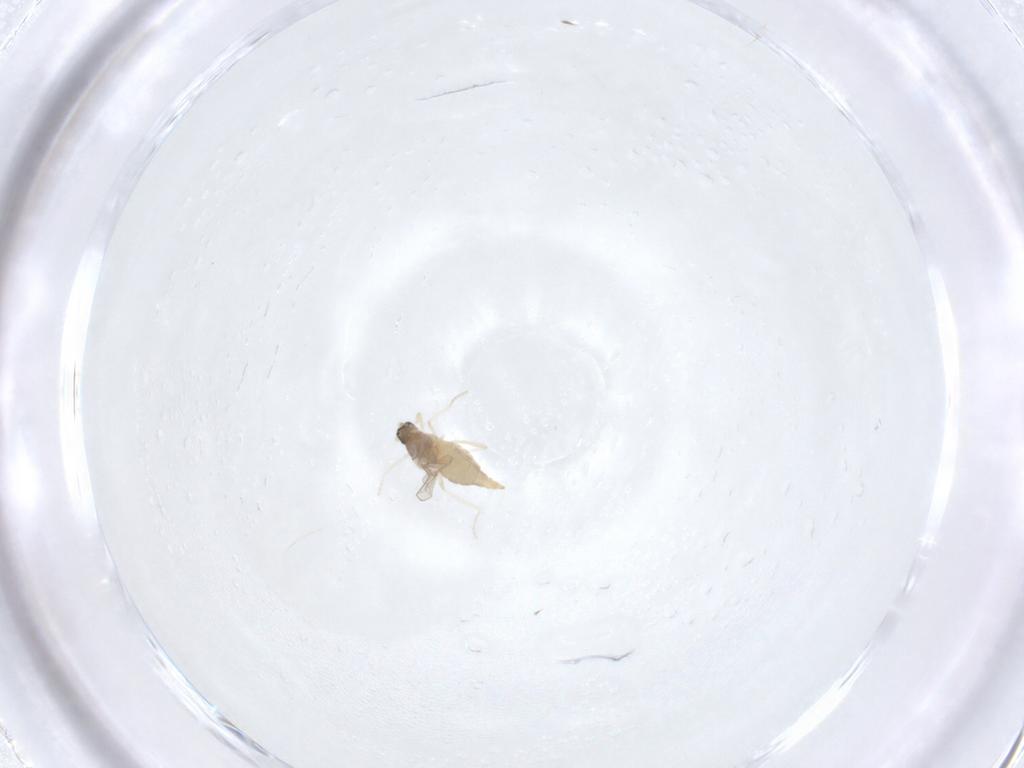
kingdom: Animalia
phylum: Arthropoda
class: Insecta
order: Diptera
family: Cecidomyiidae
